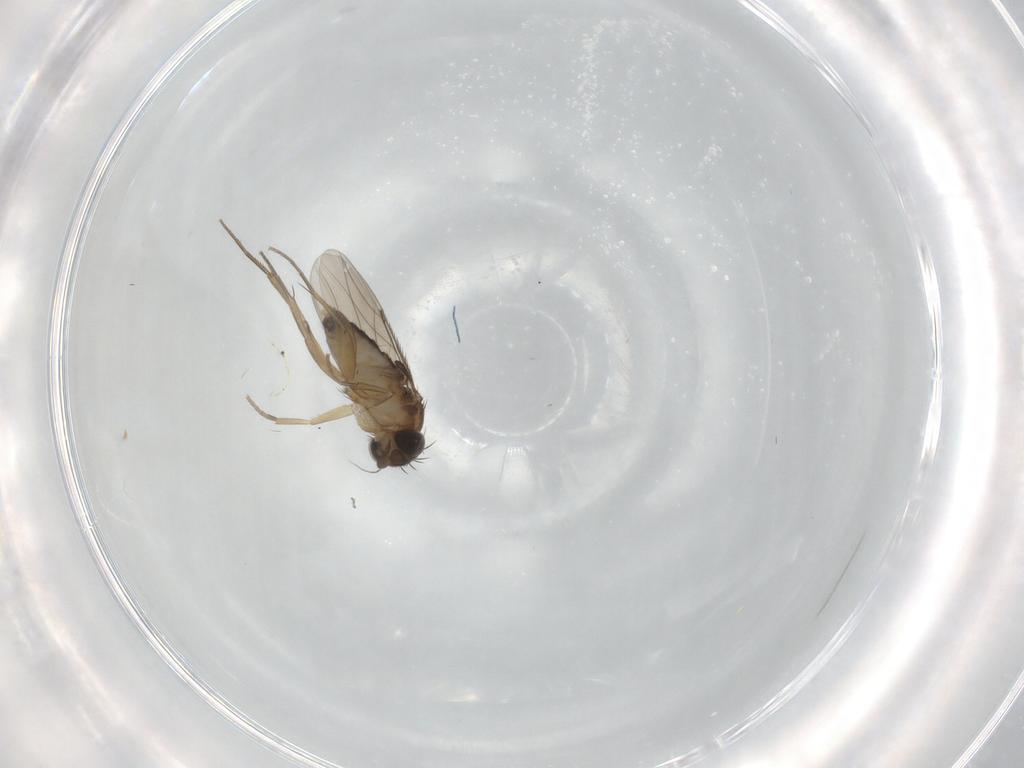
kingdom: Animalia
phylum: Arthropoda
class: Insecta
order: Diptera
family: Phoridae
